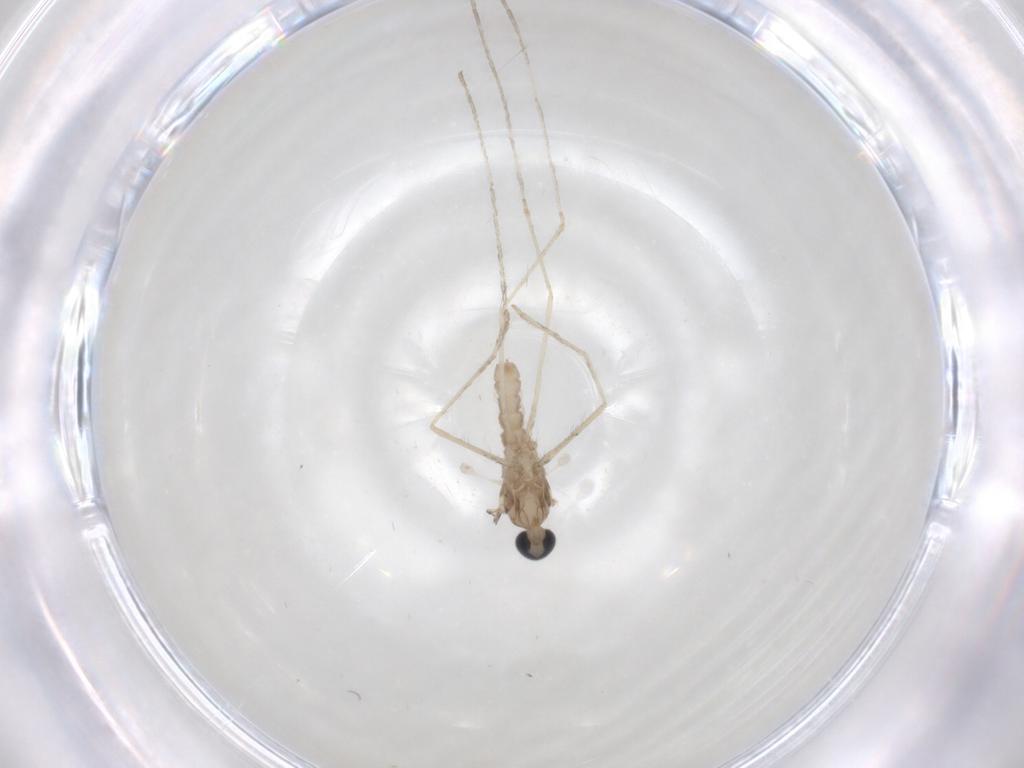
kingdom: Animalia
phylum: Arthropoda
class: Insecta
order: Diptera
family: Cecidomyiidae
